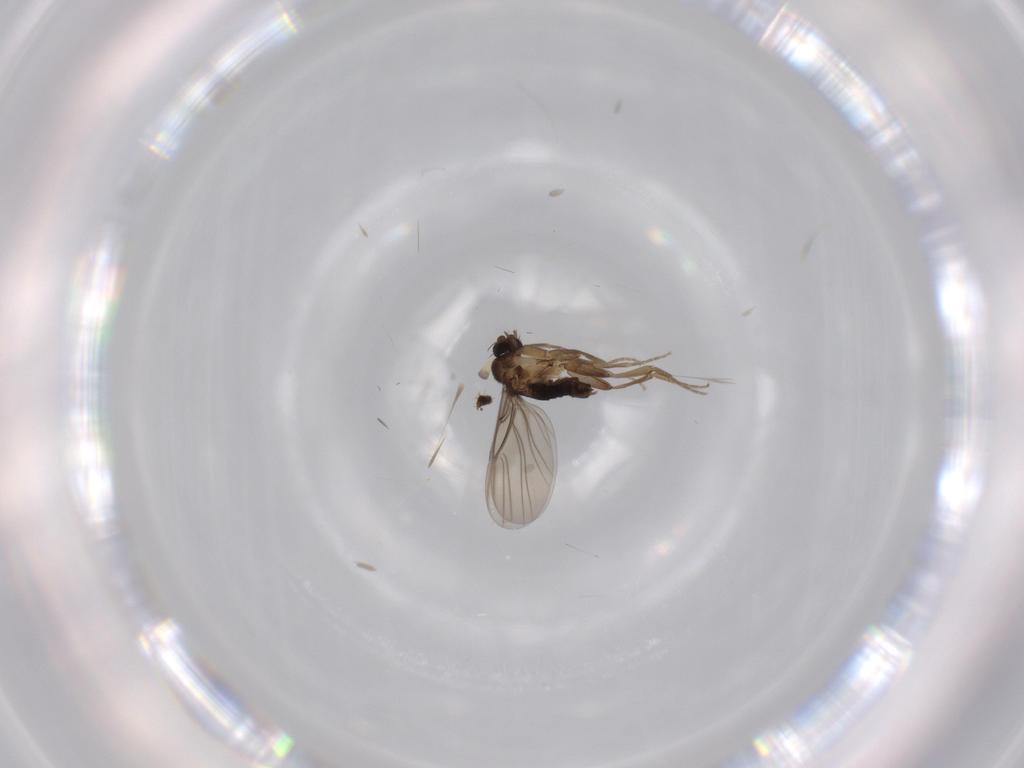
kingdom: Animalia
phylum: Arthropoda
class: Insecta
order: Diptera
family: Phoridae
